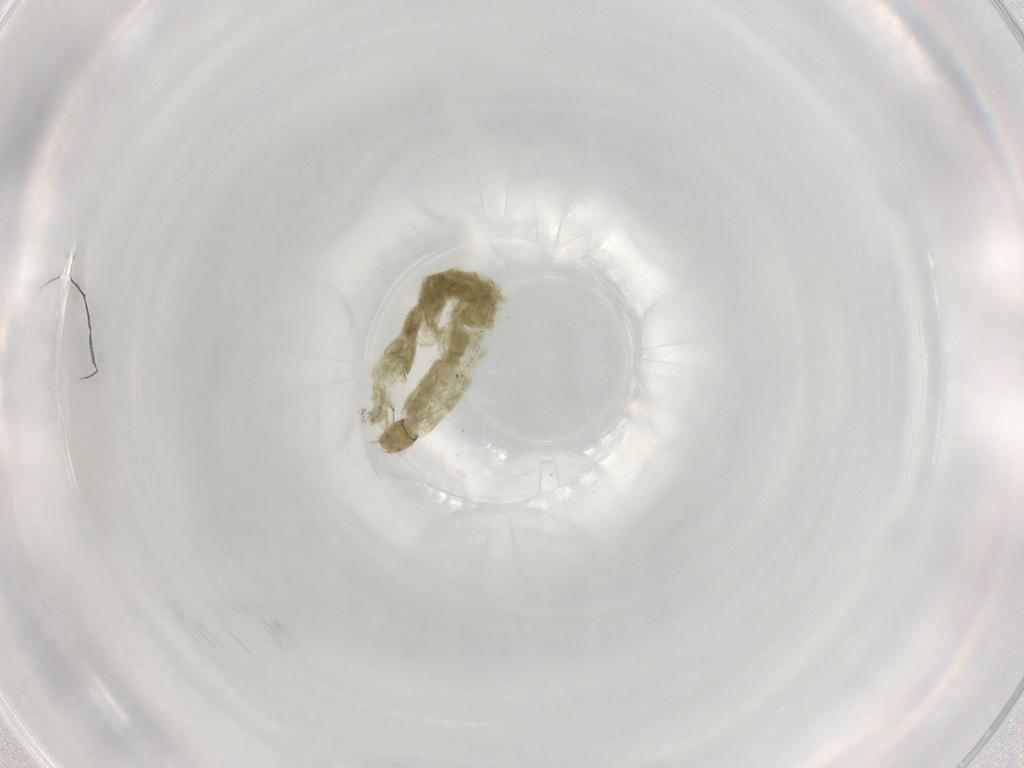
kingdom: Animalia
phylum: Arthropoda
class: Insecta
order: Diptera
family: Chironomidae
